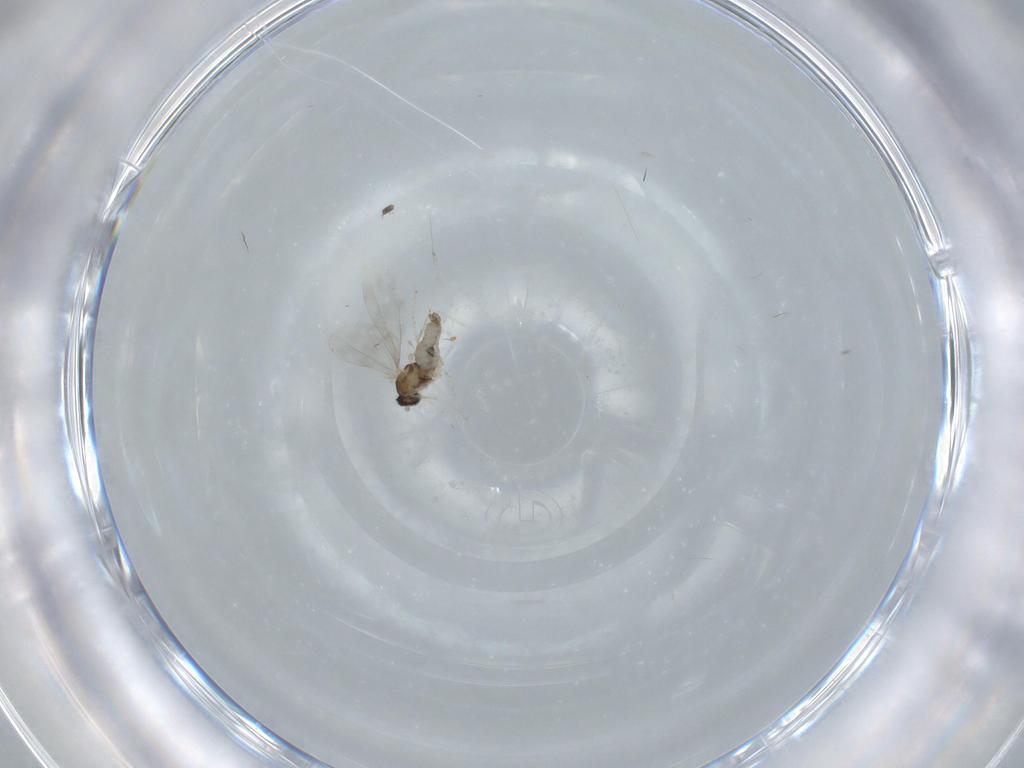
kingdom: Animalia
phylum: Arthropoda
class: Insecta
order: Diptera
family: Cecidomyiidae
